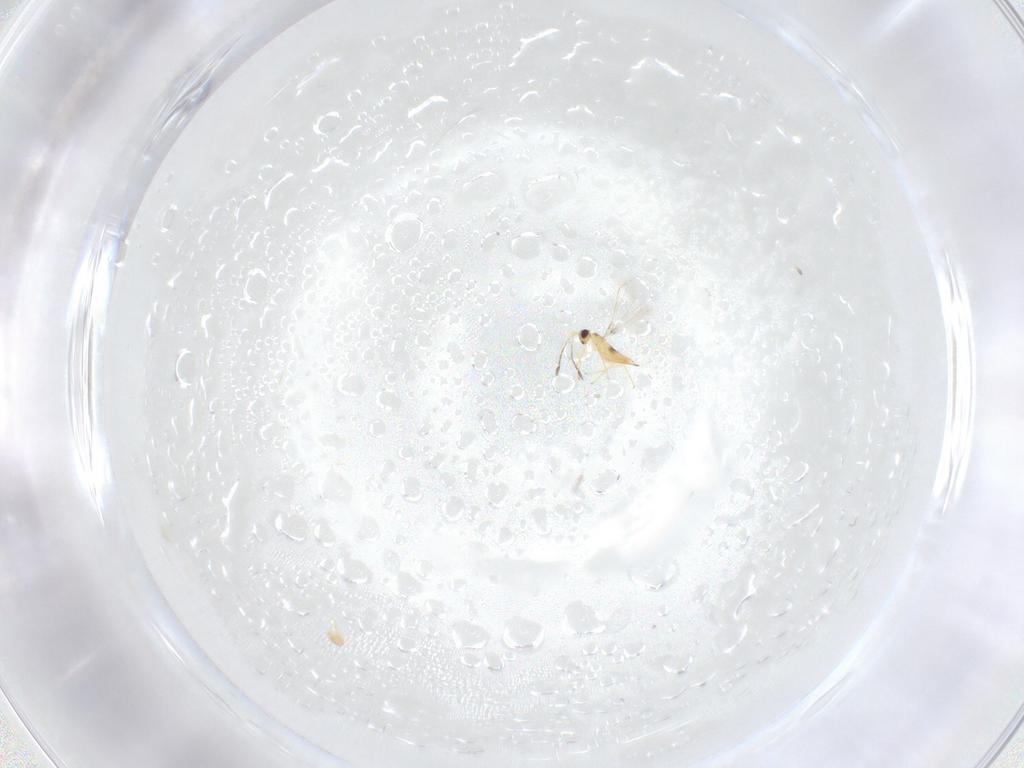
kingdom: Animalia
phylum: Arthropoda
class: Insecta
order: Hymenoptera
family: Mymaridae
